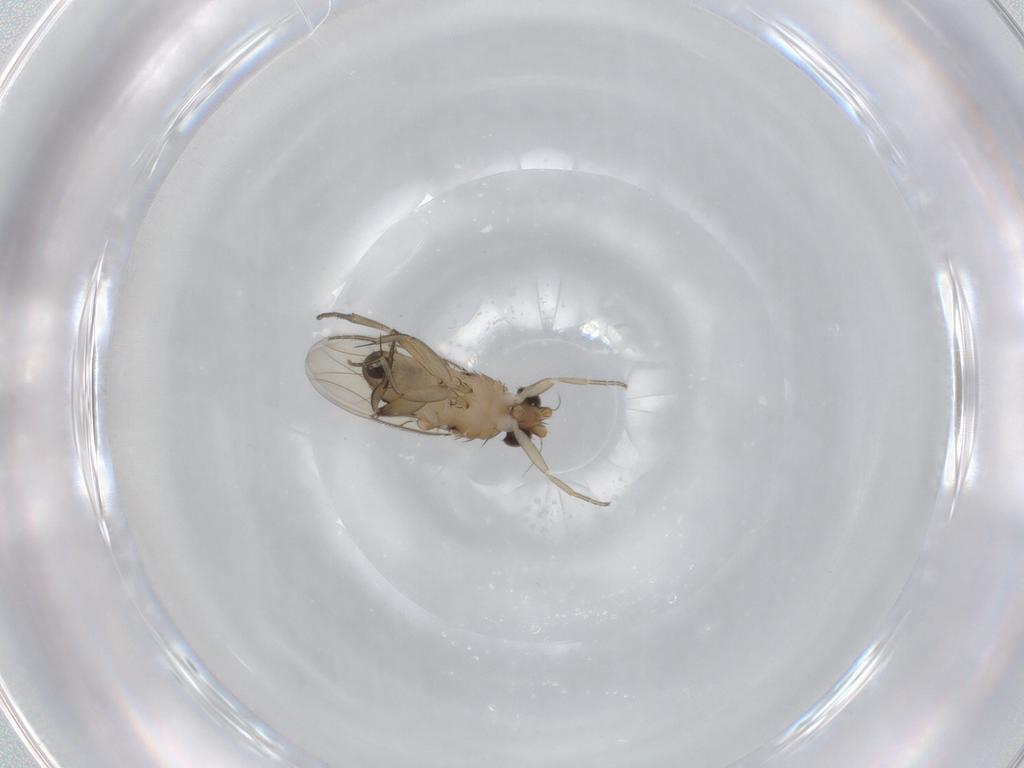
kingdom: Animalia
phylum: Arthropoda
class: Insecta
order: Diptera
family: Phoridae
